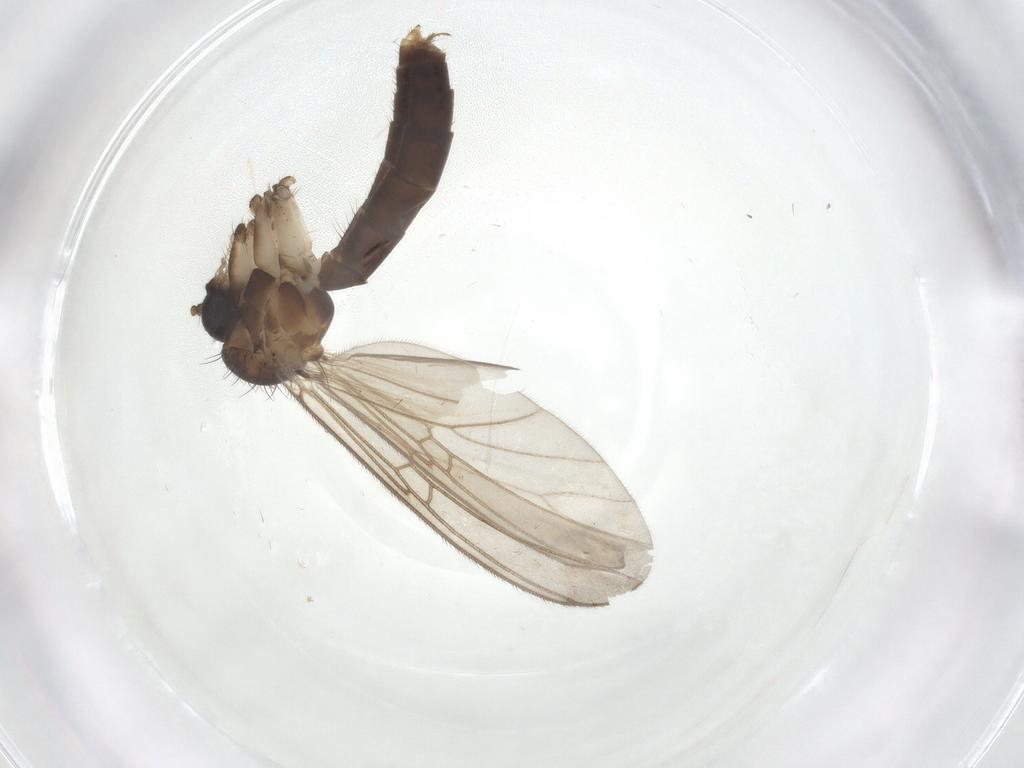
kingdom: Animalia
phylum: Arthropoda
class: Insecta
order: Diptera
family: Mycetophilidae
